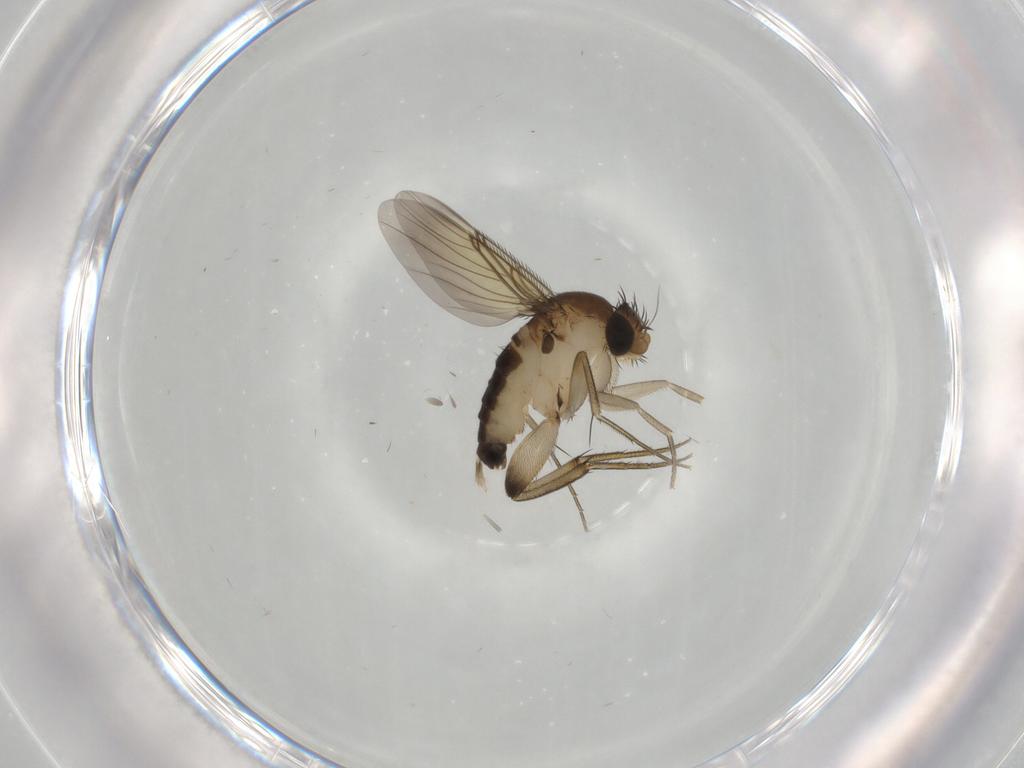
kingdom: Animalia
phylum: Arthropoda
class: Insecta
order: Diptera
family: Phoridae
